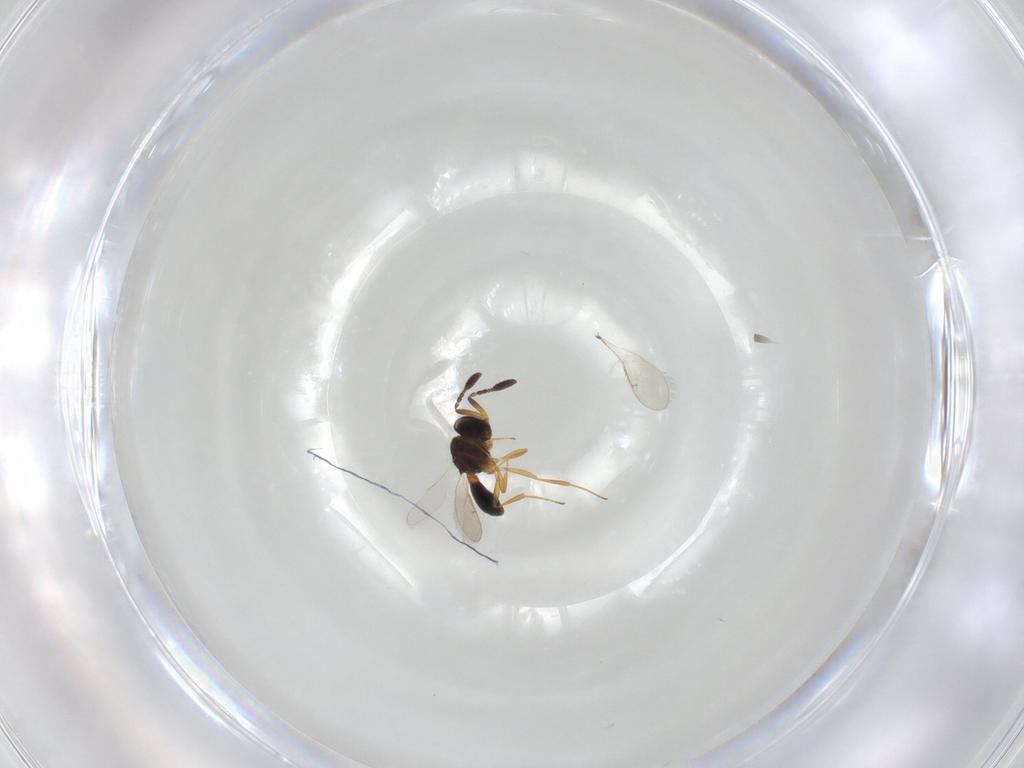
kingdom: Animalia
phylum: Arthropoda
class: Insecta
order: Hymenoptera
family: Scelionidae
